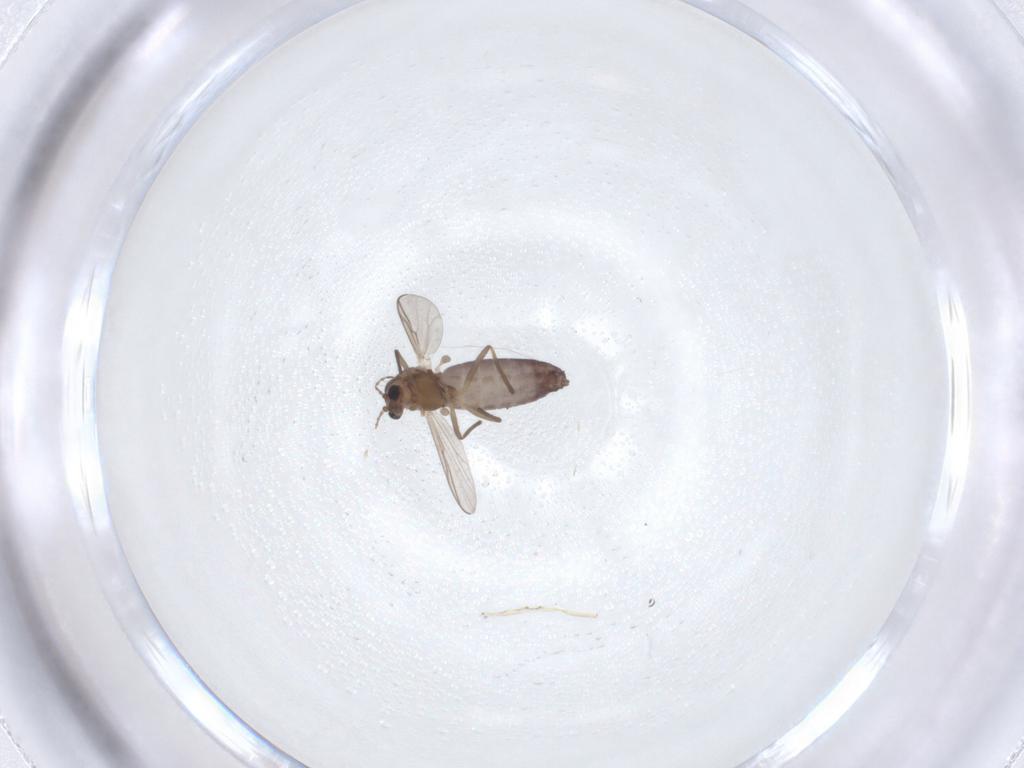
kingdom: Animalia
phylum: Arthropoda
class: Insecta
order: Diptera
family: Chironomidae
